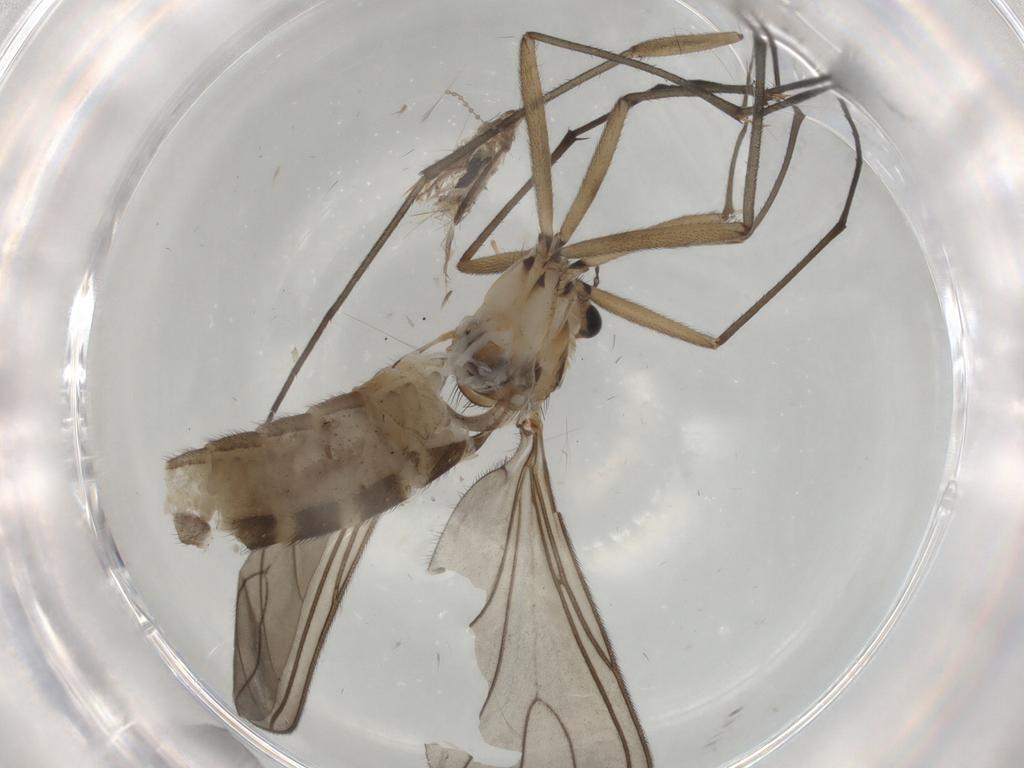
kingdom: Animalia
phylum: Arthropoda
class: Insecta
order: Diptera
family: Sciaridae
